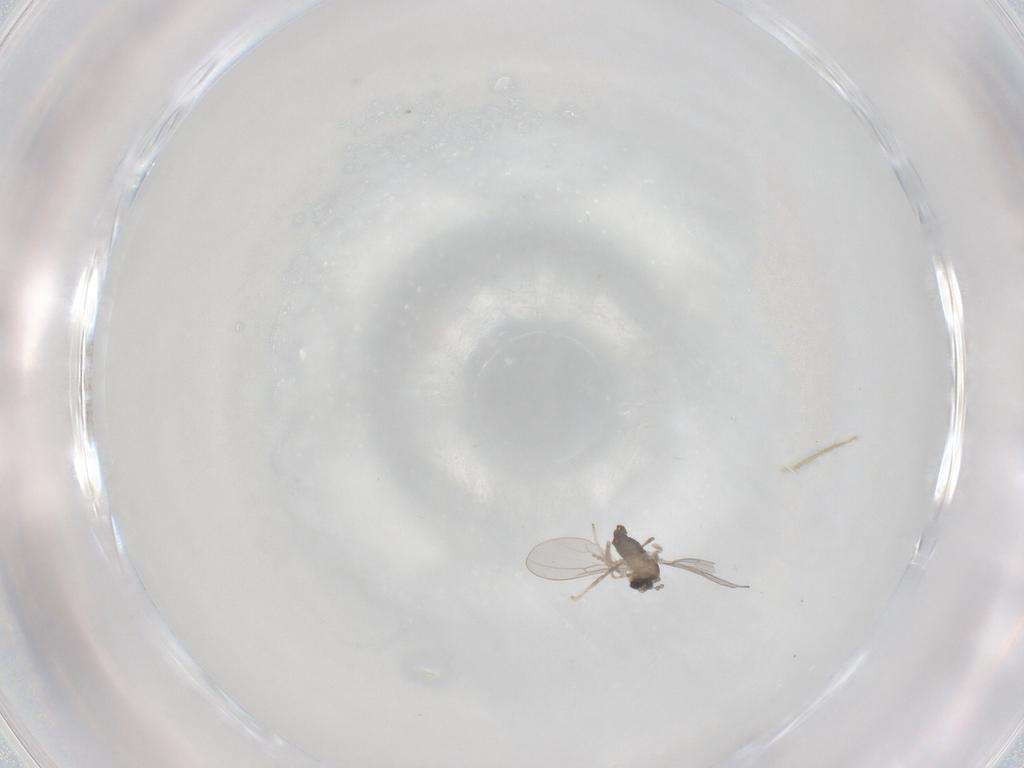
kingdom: Animalia
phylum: Arthropoda
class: Insecta
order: Diptera
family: Cecidomyiidae
